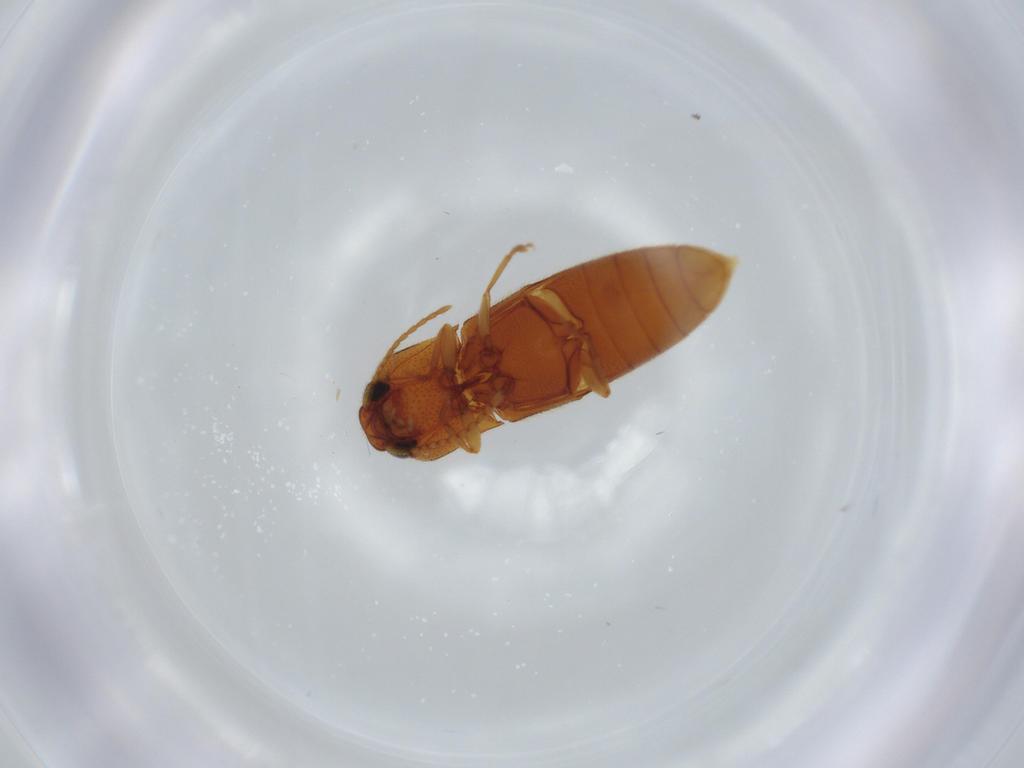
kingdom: Animalia
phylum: Arthropoda
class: Insecta
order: Coleoptera
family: Elateridae
